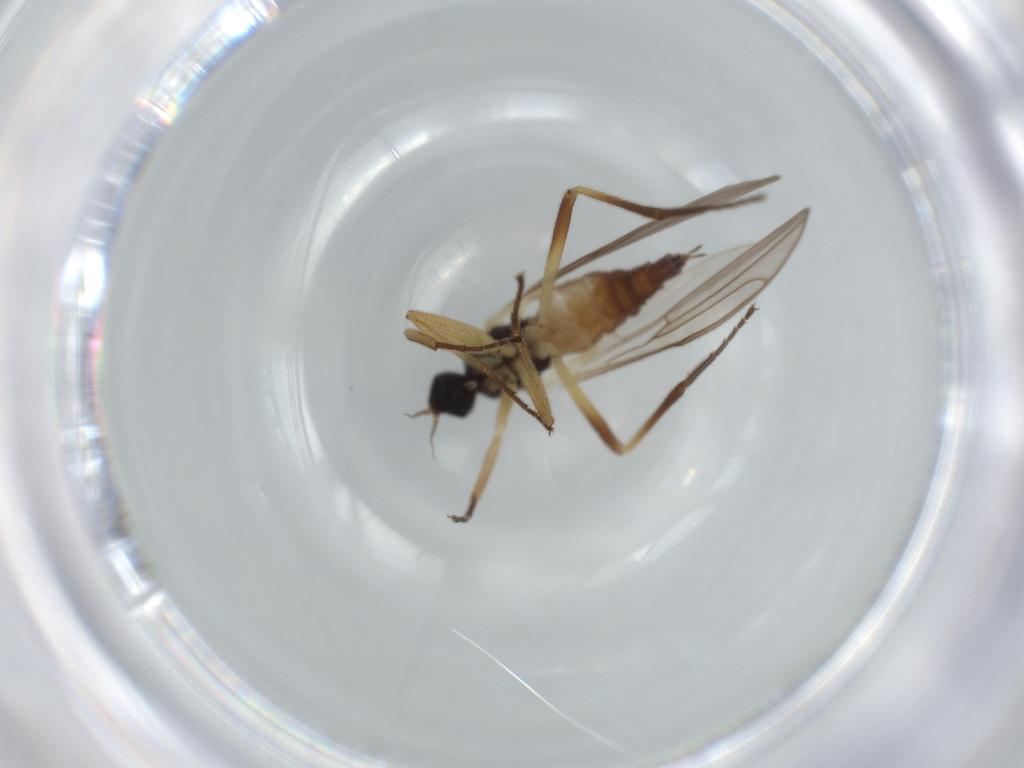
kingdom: Animalia
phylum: Arthropoda
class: Insecta
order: Diptera
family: Cecidomyiidae
